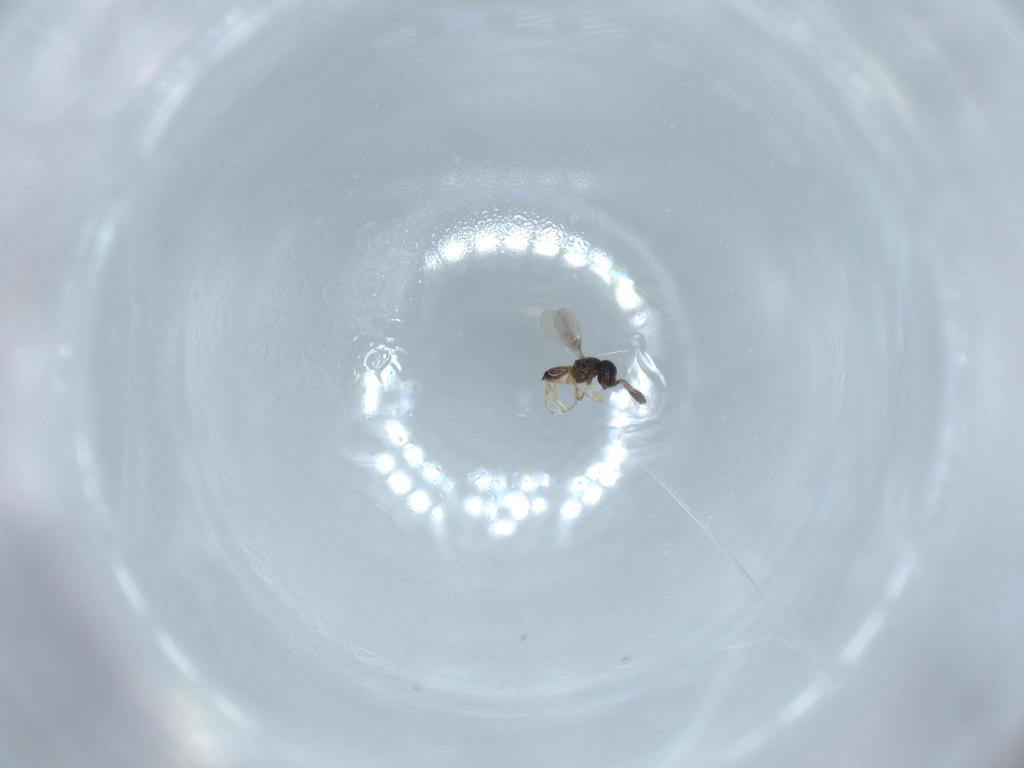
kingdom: Animalia
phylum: Arthropoda
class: Insecta
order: Hymenoptera
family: Scelionidae
